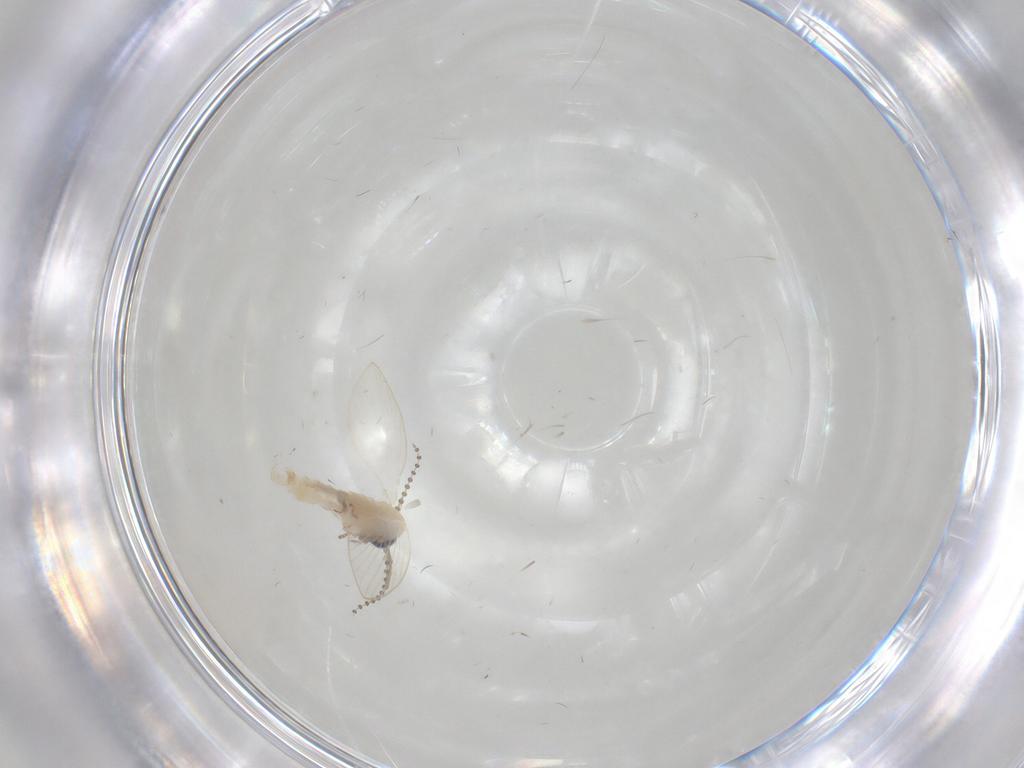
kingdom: Animalia
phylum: Arthropoda
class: Insecta
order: Diptera
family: Psychodidae
